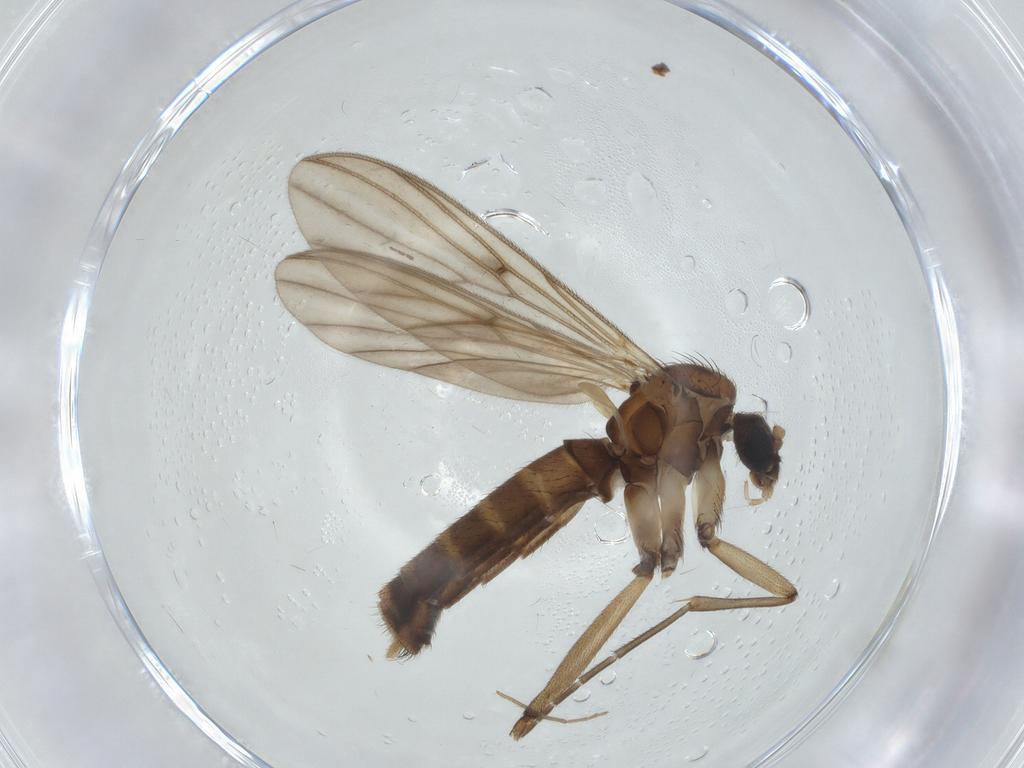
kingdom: Animalia
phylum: Arthropoda
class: Insecta
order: Diptera
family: Mycetophilidae
